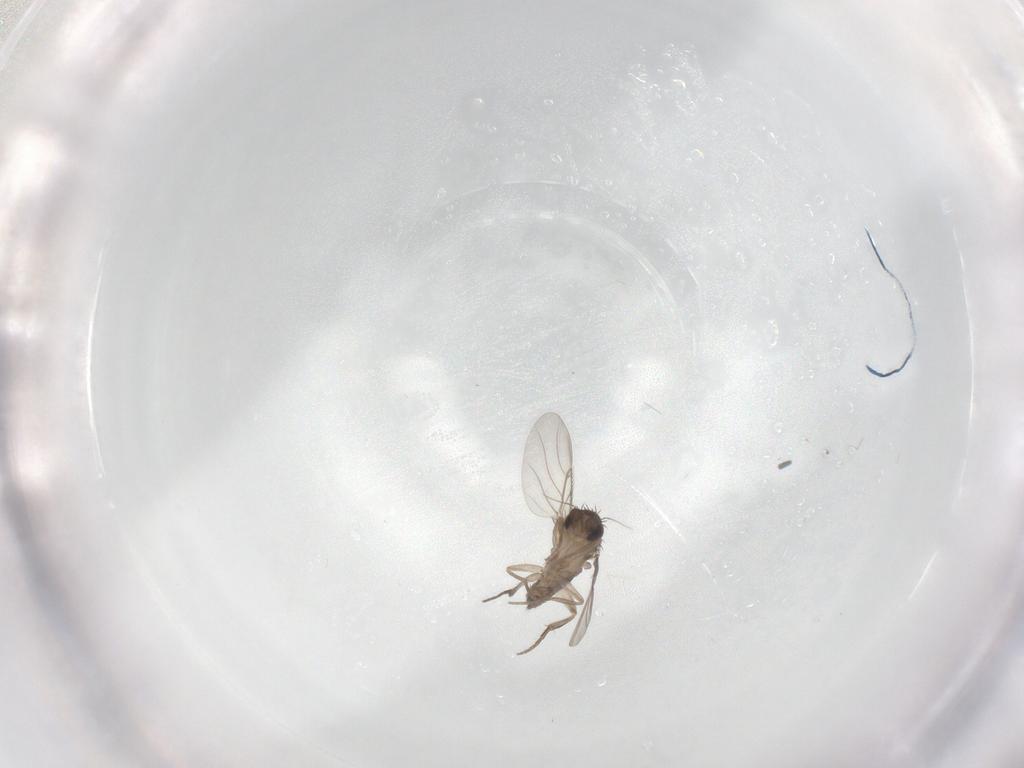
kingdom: Animalia
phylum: Arthropoda
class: Insecta
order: Diptera
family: Phoridae
